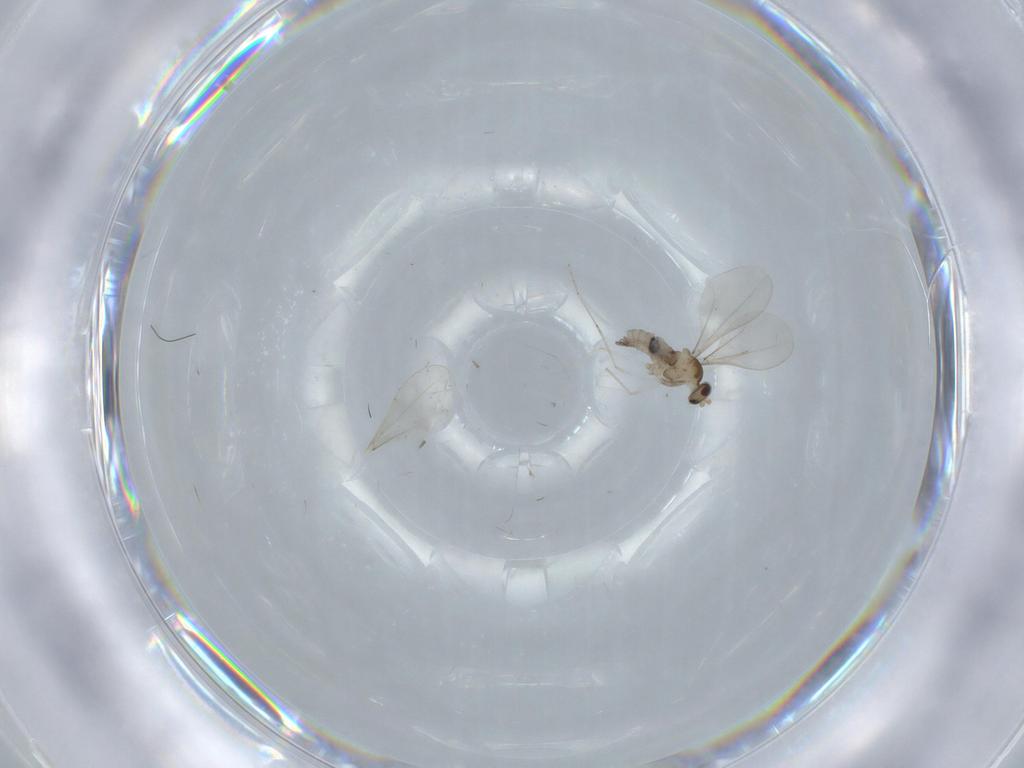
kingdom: Animalia
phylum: Arthropoda
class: Insecta
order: Diptera
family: Cecidomyiidae
